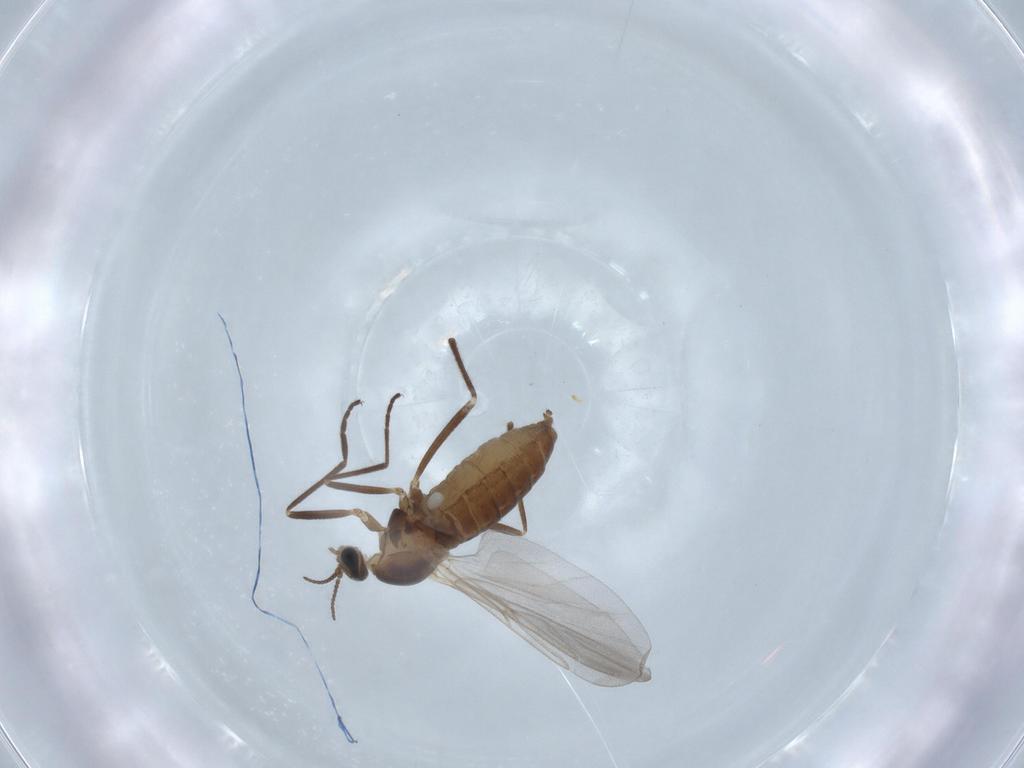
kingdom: Animalia
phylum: Arthropoda
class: Insecta
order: Diptera
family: Cecidomyiidae
